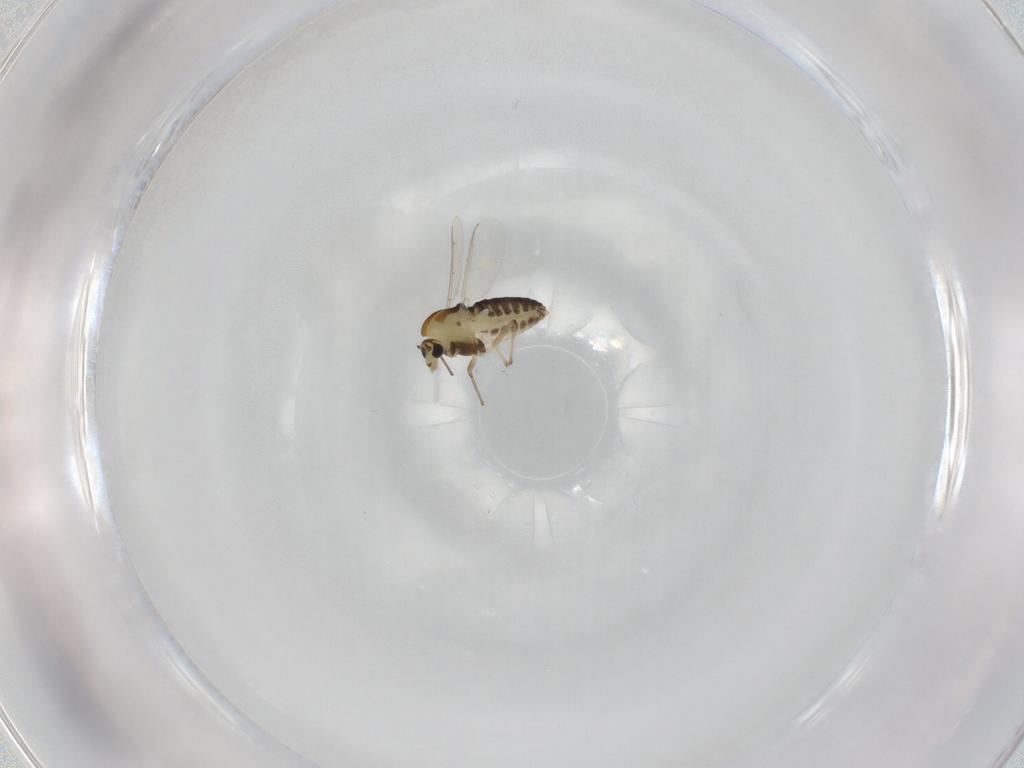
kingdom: Animalia
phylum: Arthropoda
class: Insecta
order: Diptera
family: Chironomidae
